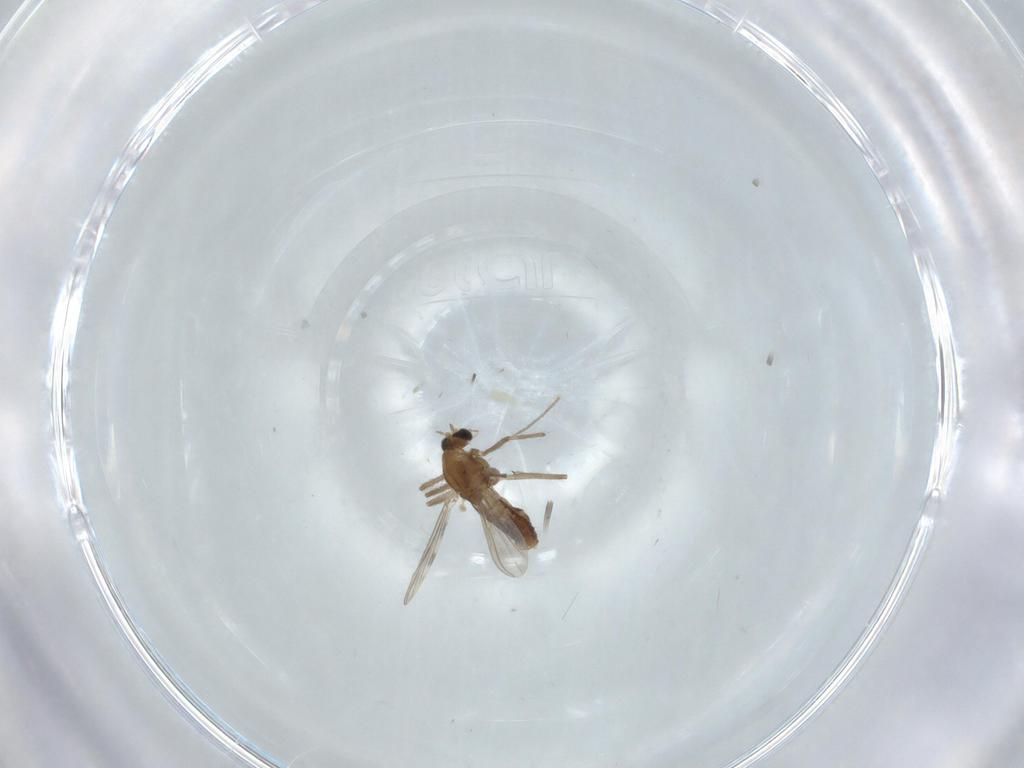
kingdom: Animalia
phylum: Arthropoda
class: Insecta
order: Diptera
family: Chironomidae
